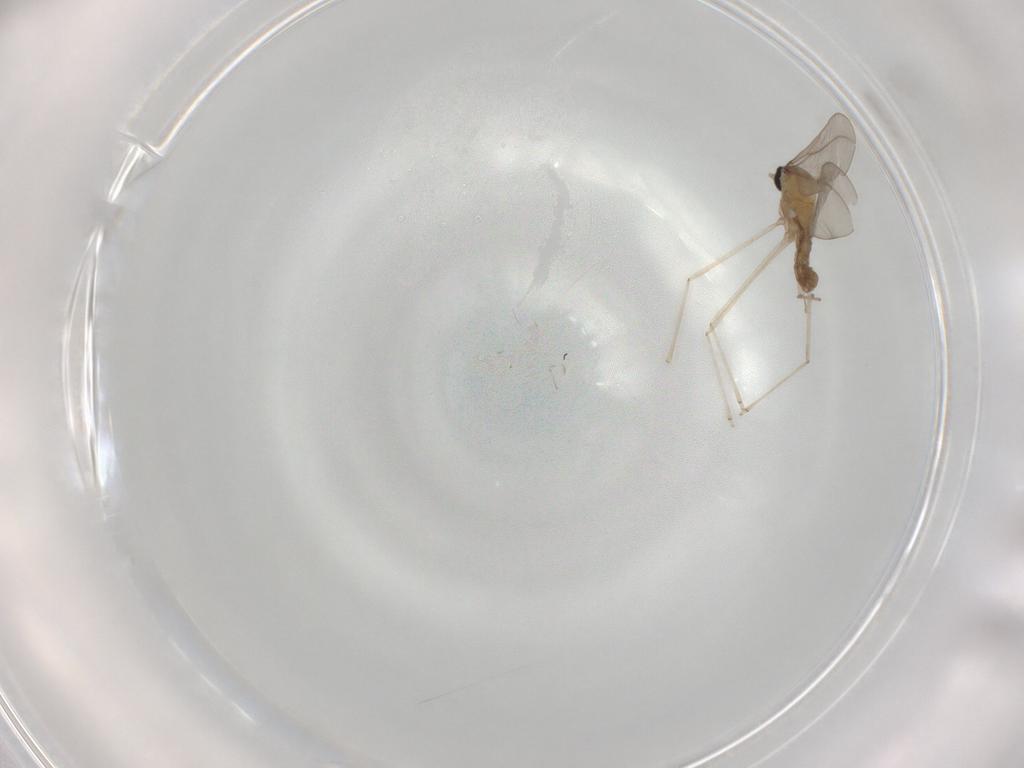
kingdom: Animalia
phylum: Arthropoda
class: Insecta
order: Diptera
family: Cecidomyiidae
